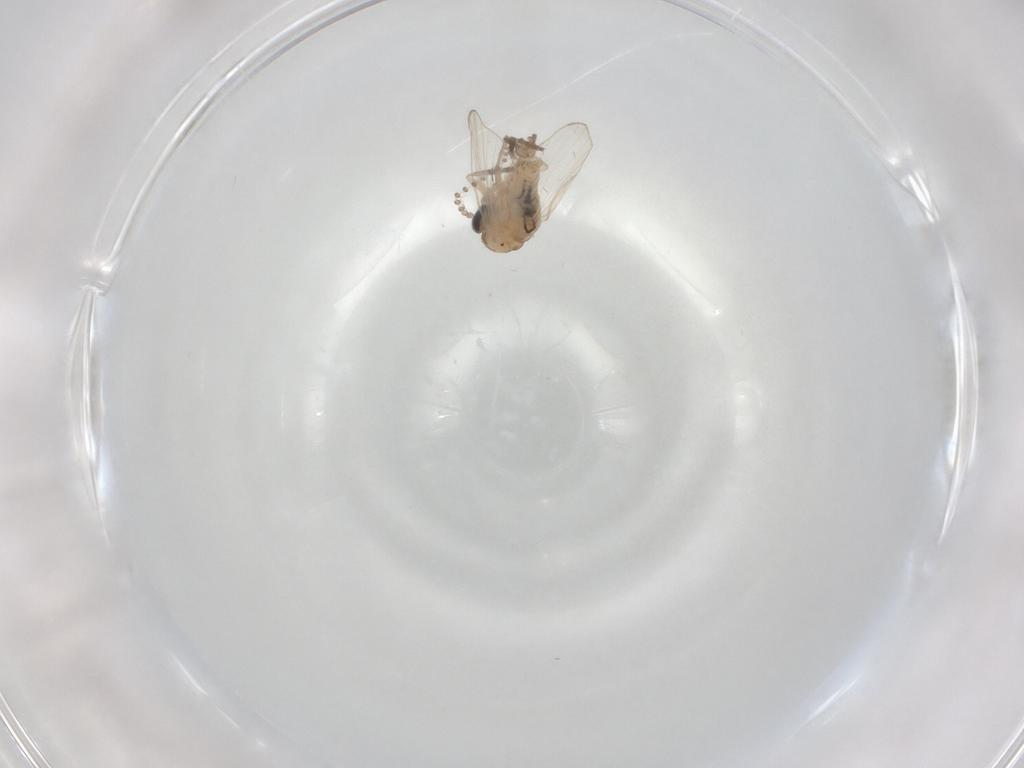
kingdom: Animalia
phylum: Arthropoda
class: Insecta
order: Diptera
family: Psychodidae
